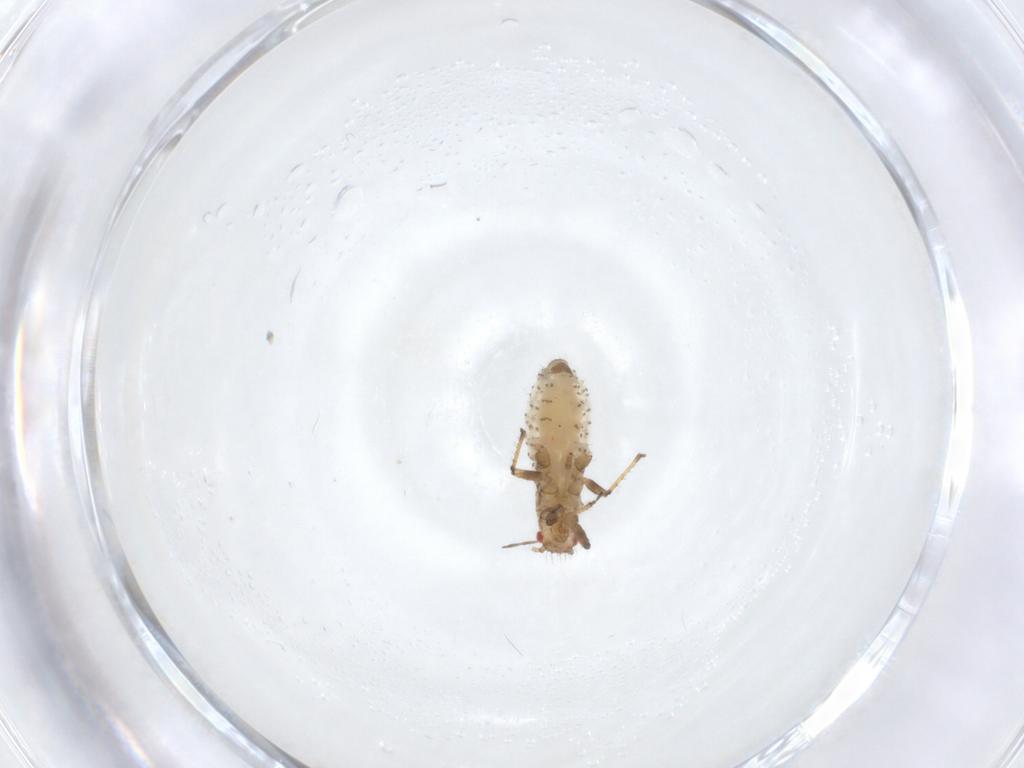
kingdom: Animalia
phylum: Arthropoda
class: Insecta
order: Hemiptera
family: Aphididae
